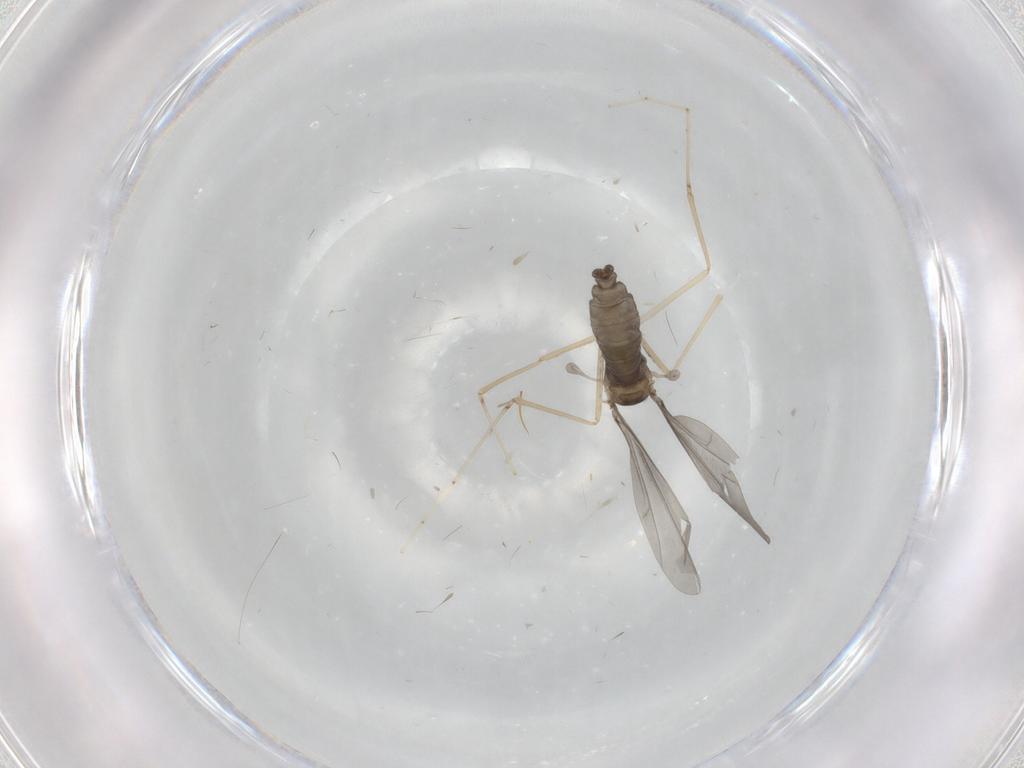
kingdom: Animalia
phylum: Arthropoda
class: Insecta
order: Diptera
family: Cecidomyiidae
